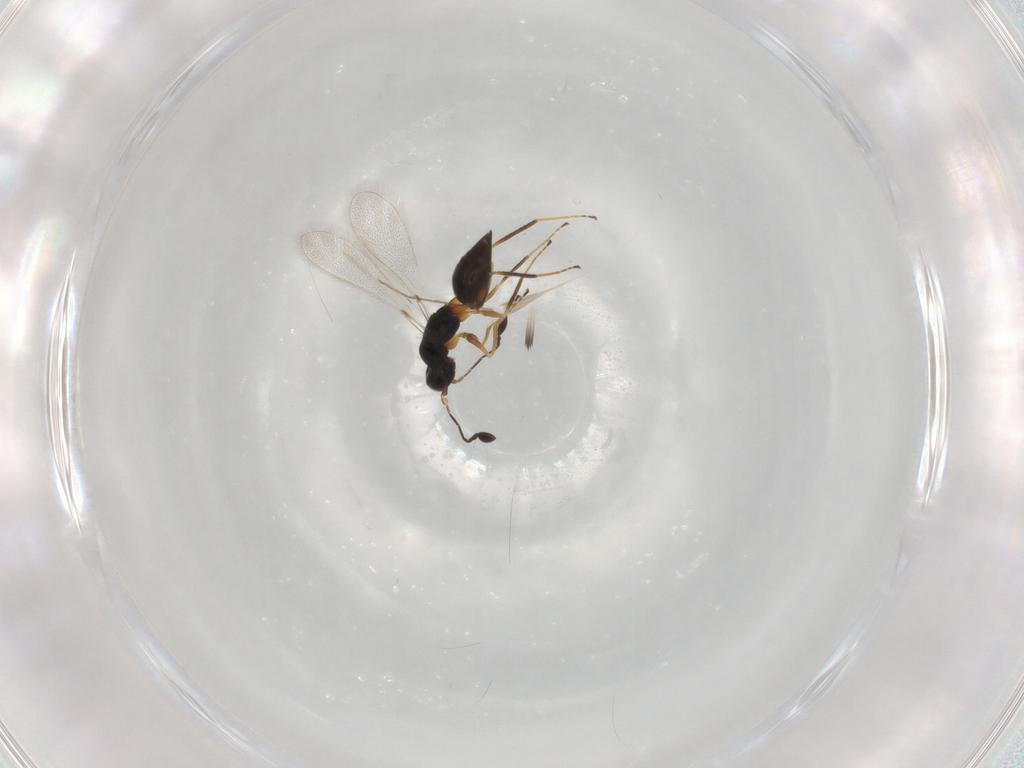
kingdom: Animalia
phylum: Arthropoda
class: Insecta
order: Hymenoptera
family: Mymaridae
